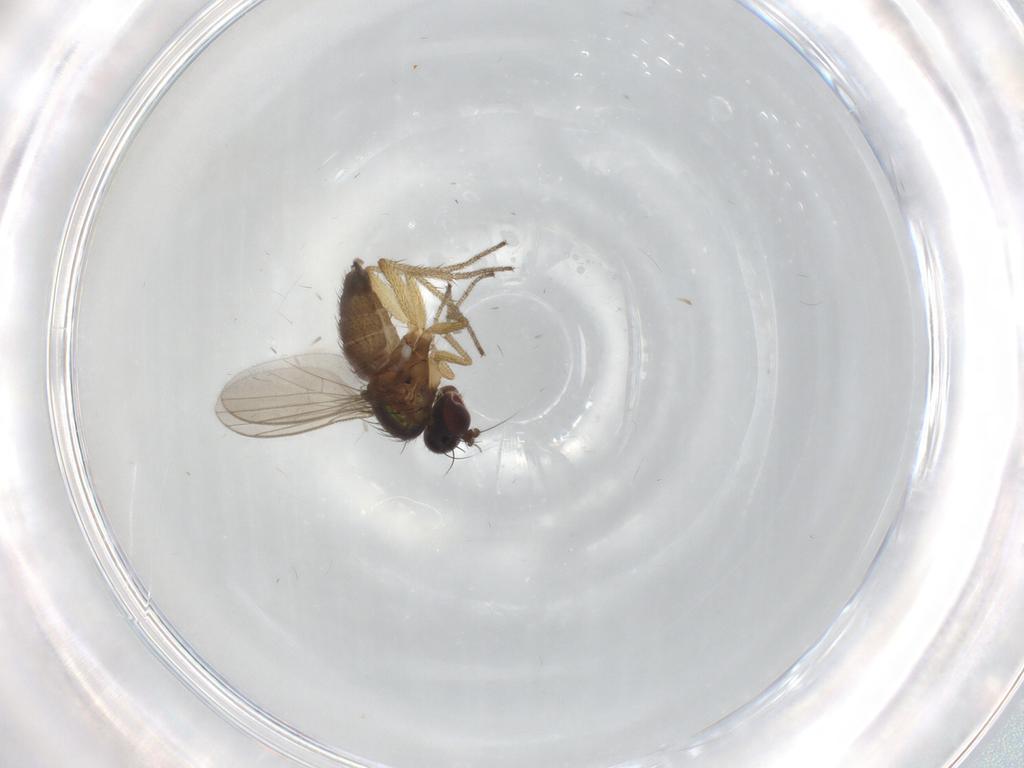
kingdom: Animalia
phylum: Arthropoda
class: Insecta
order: Diptera
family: Dolichopodidae
